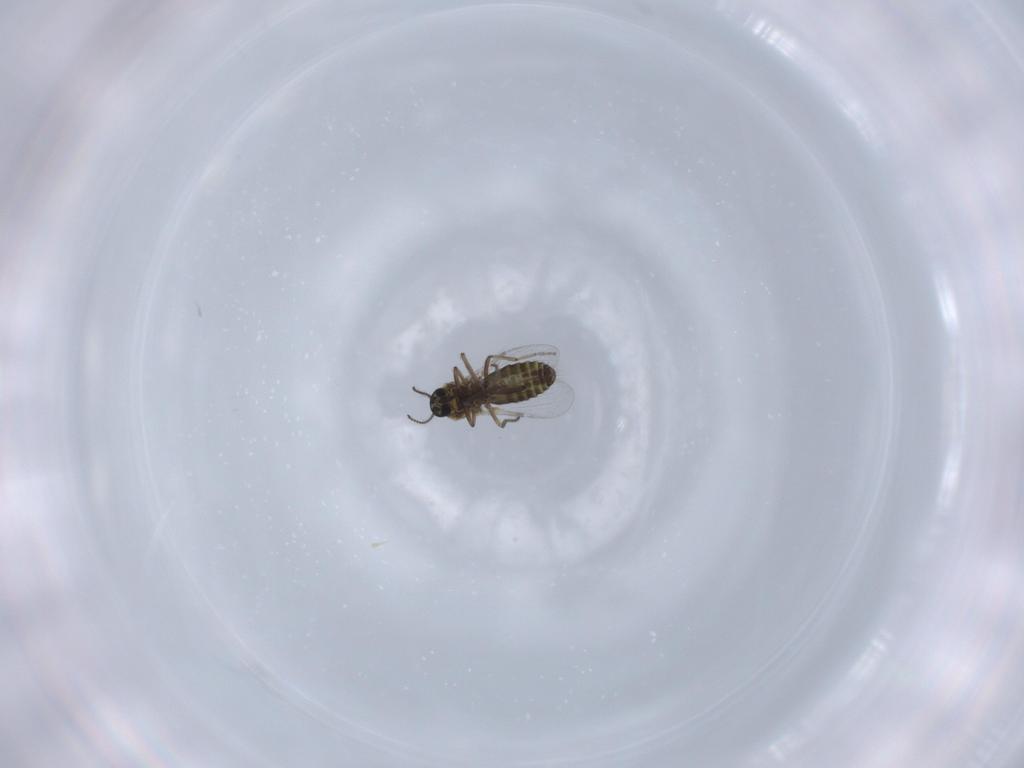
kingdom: Animalia
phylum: Arthropoda
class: Insecta
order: Diptera
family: Ceratopogonidae
